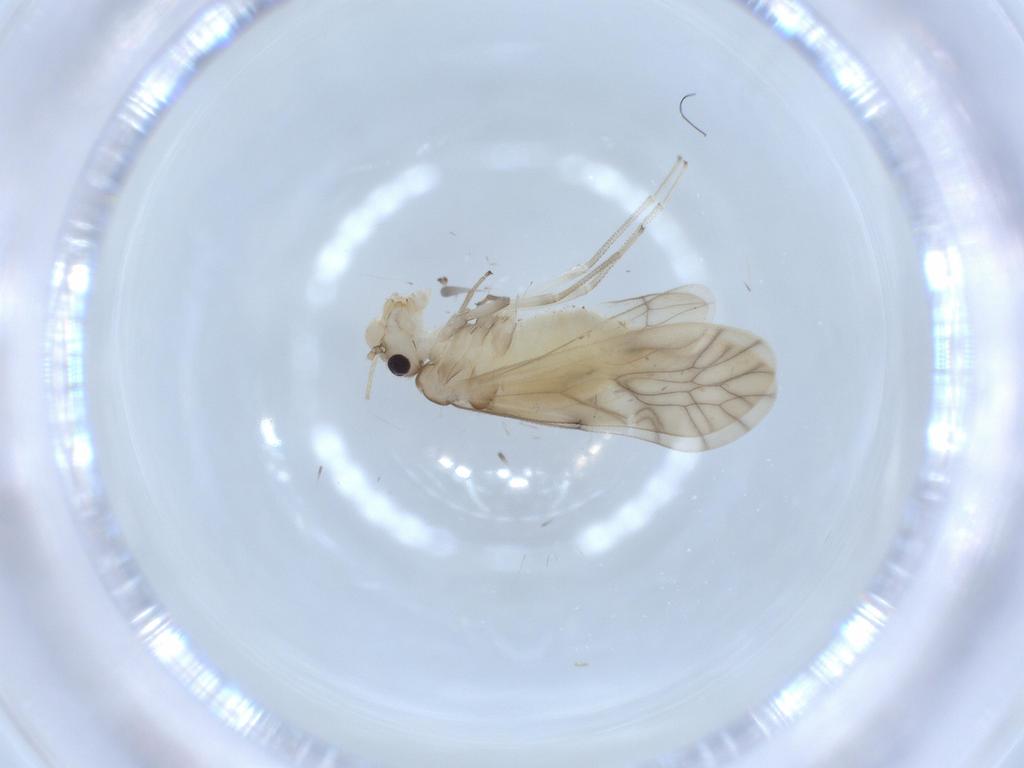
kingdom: Animalia
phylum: Arthropoda
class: Insecta
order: Psocodea
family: Caeciliusidae
